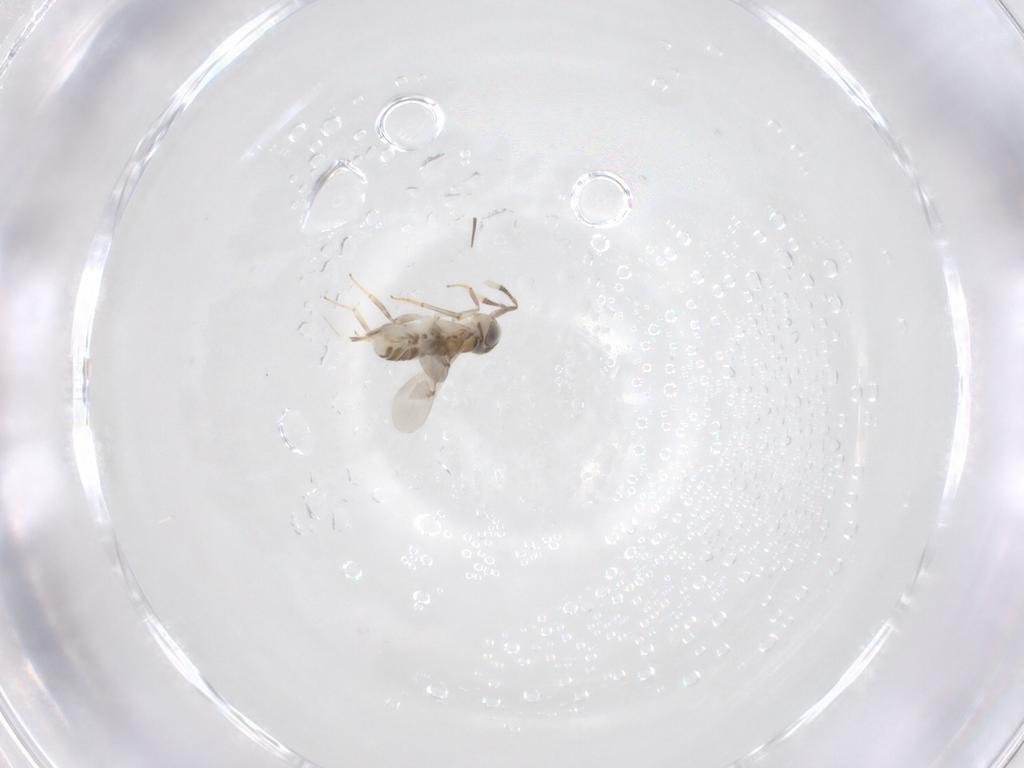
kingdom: Animalia
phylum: Arthropoda
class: Insecta
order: Hymenoptera
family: Encyrtidae
